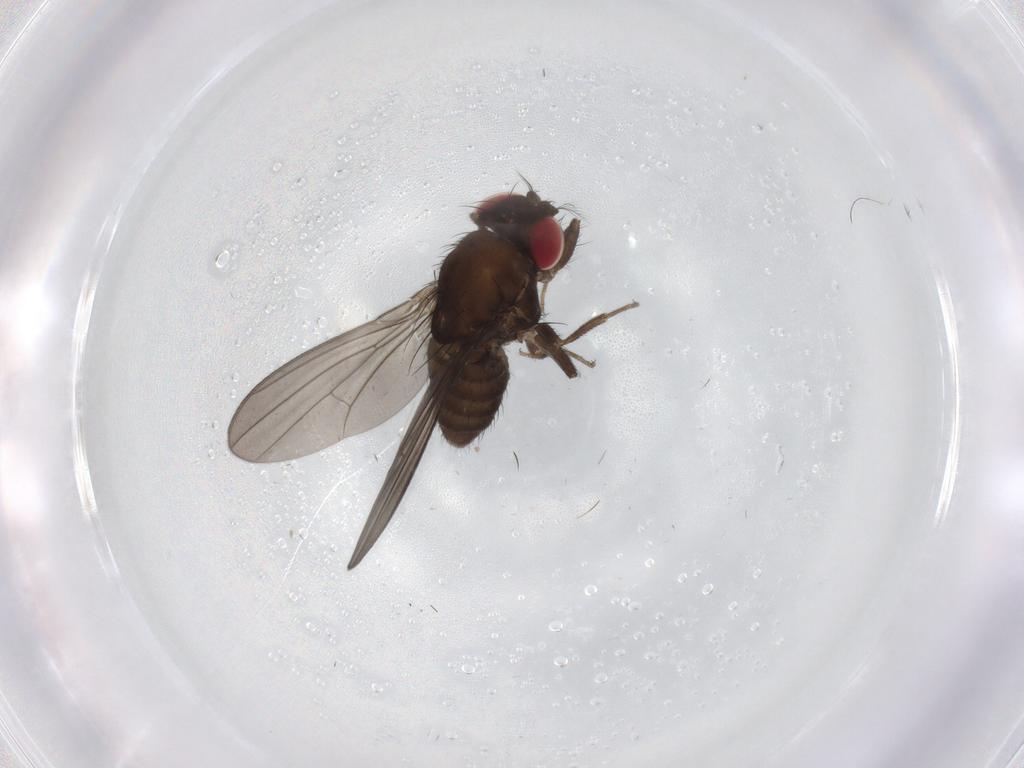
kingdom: Animalia
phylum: Arthropoda
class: Insecta
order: Diptera
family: Drosophilidae
